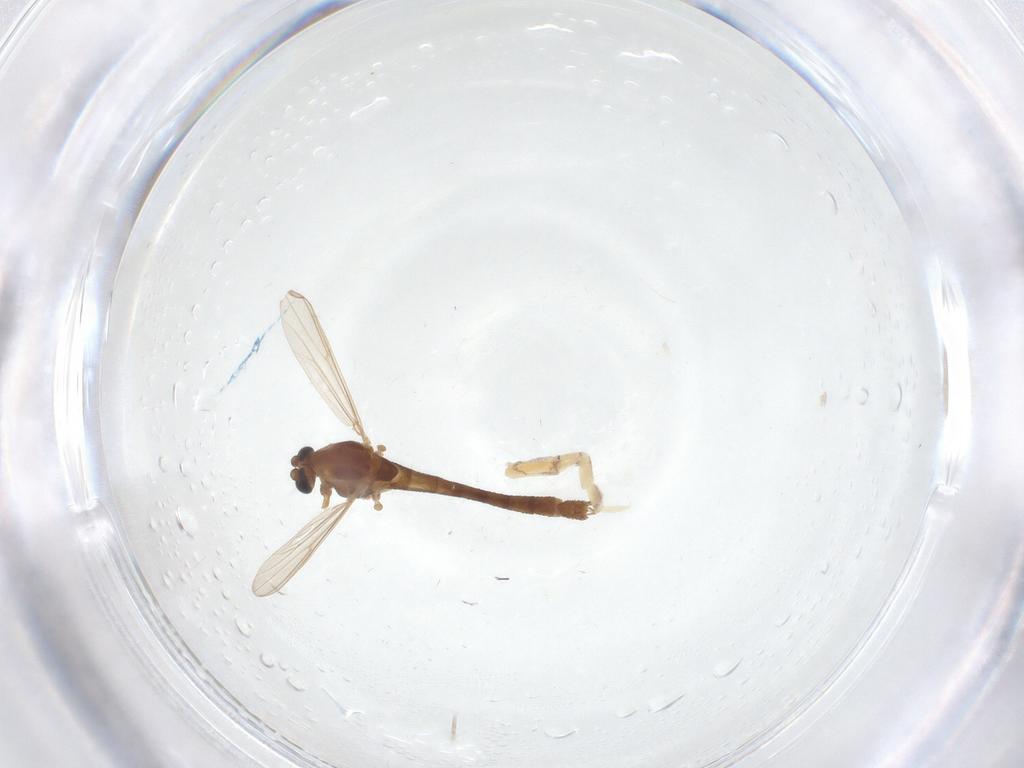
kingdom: Animalia
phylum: Arthropoda
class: Insecta
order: Diptera
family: Chironomidae
